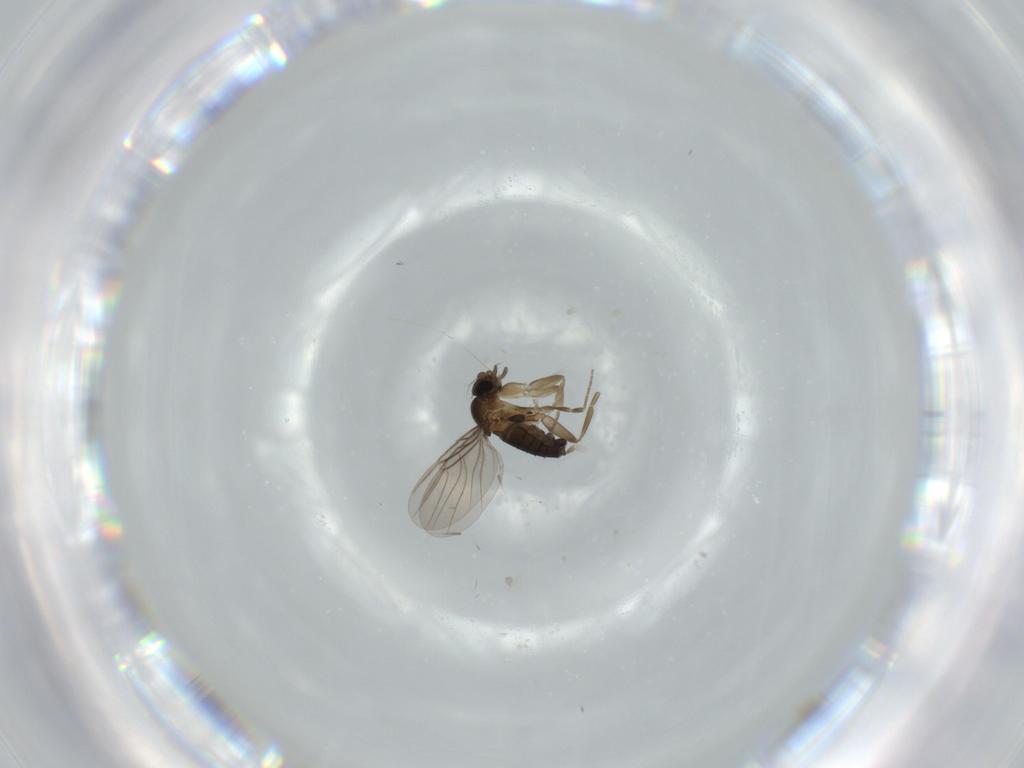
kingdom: Animalia
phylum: Arthropoda
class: Insecta
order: Diptera
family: Phoridae
